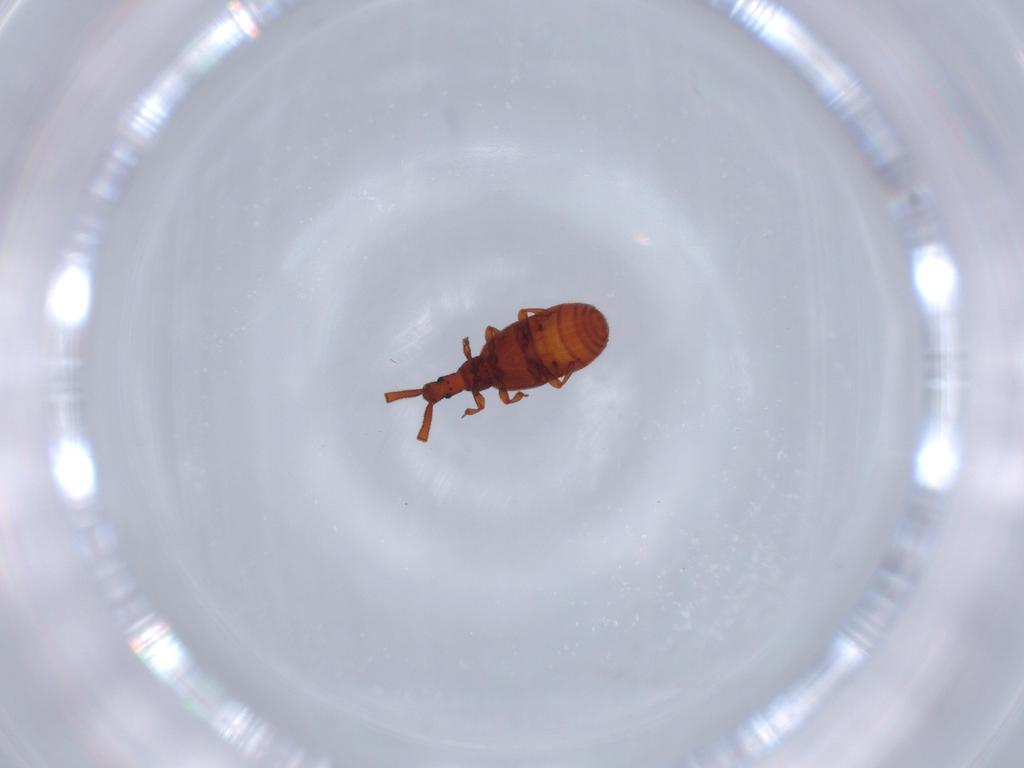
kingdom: Animalia
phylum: Arthropoda
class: Insecta
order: Coleoptera
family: Staphylinidae
